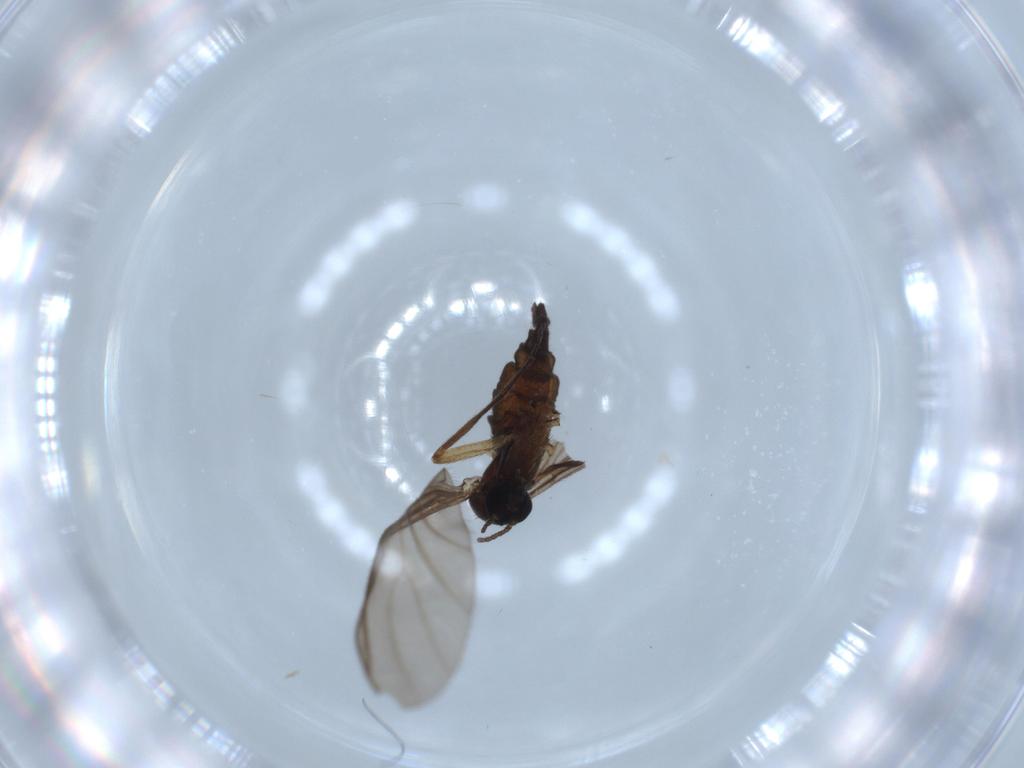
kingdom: Animalia
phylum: Arthropoda
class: Insecta
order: Diptera
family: Sciaridae
